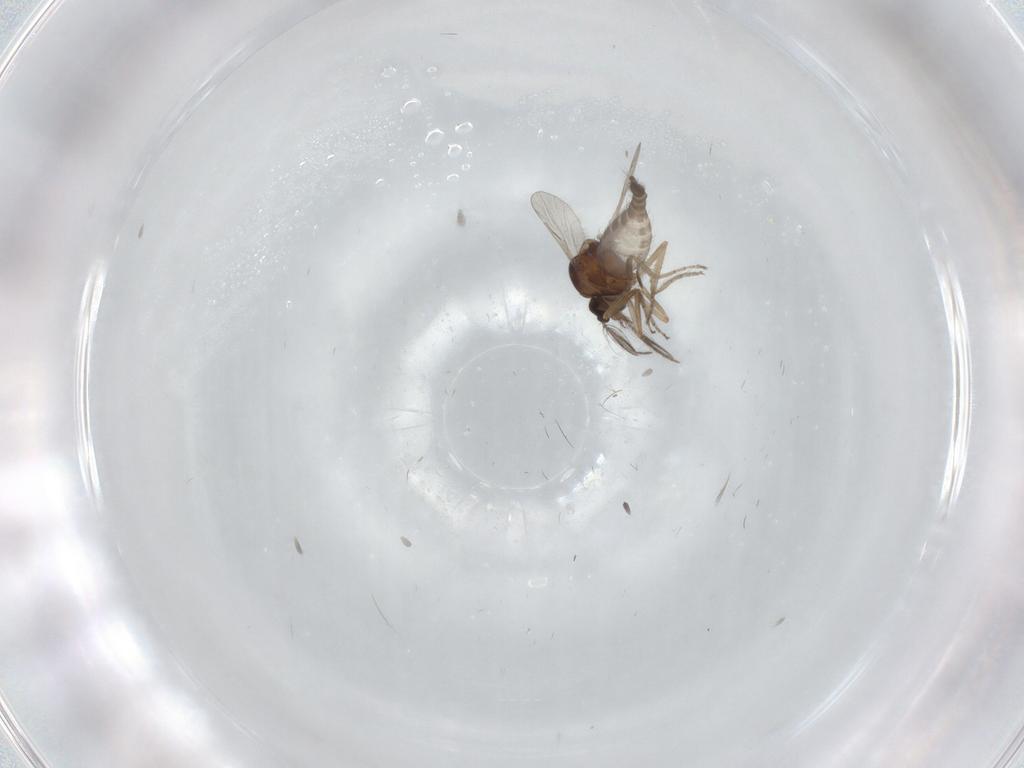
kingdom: Animalia
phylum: Arthropoda
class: Insecta
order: Diptera
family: Ceratopogonidae
